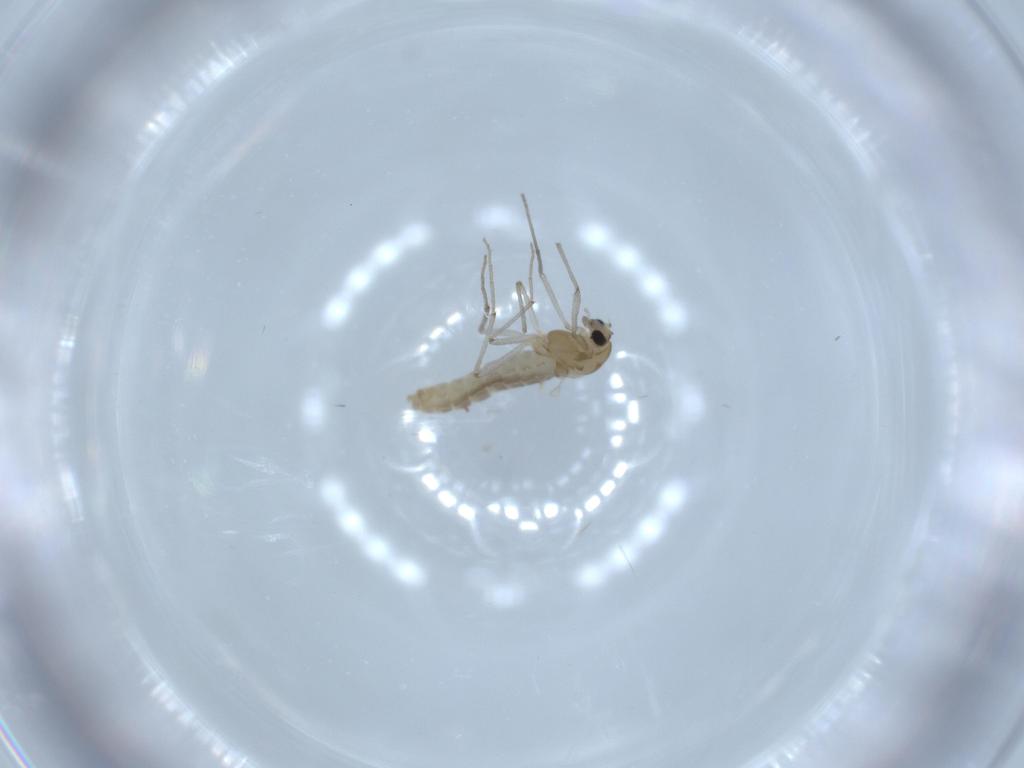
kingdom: Animalia
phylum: Arthropoda
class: Insecta
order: Diptera
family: Chironomidae
